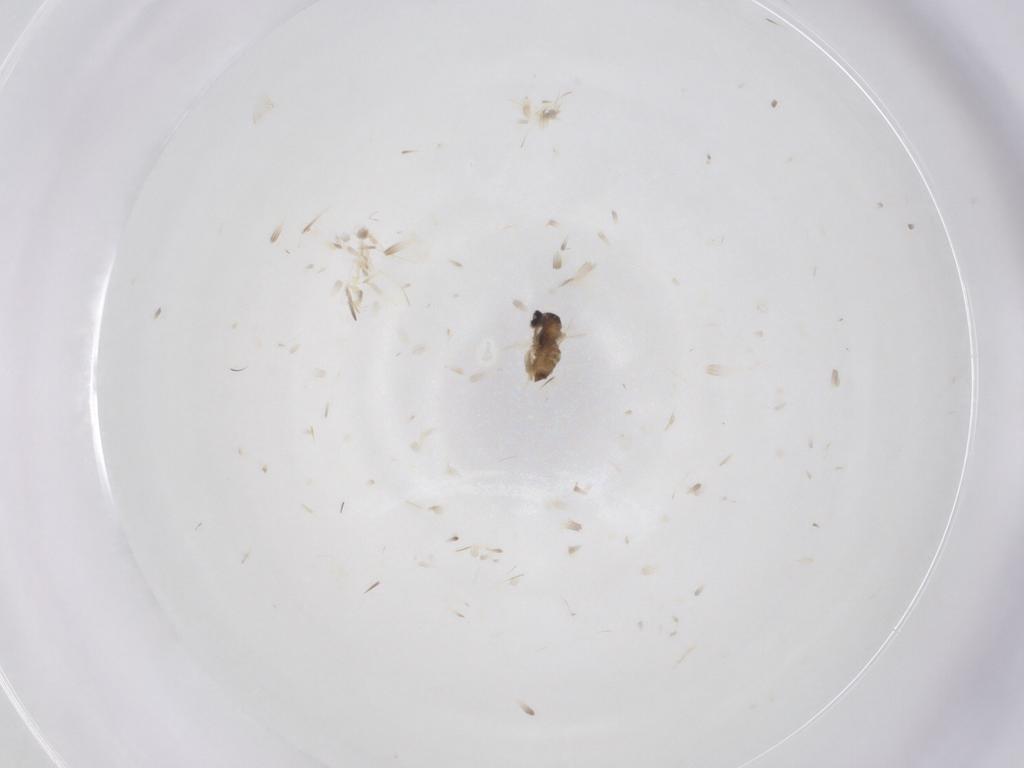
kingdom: Animalia
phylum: Arthropoda
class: Insecta
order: Diptera
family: Cecidomyiidae
